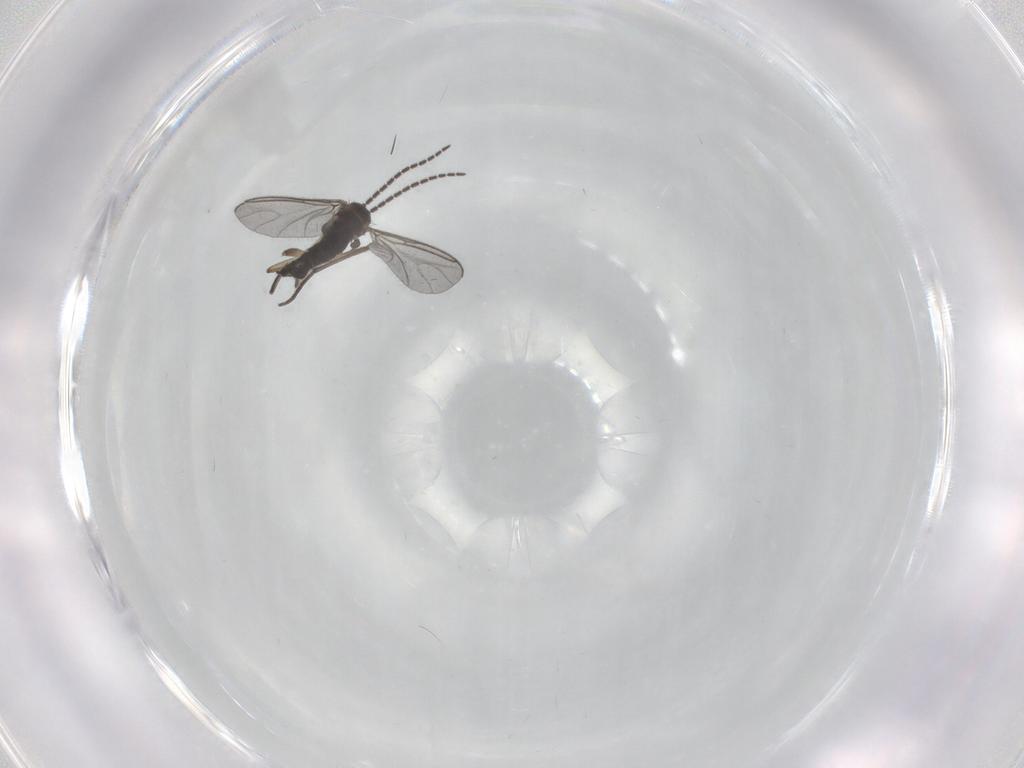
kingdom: Animalia
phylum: Arthropoda
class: Insecta
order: Diptera
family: Sciaridae
